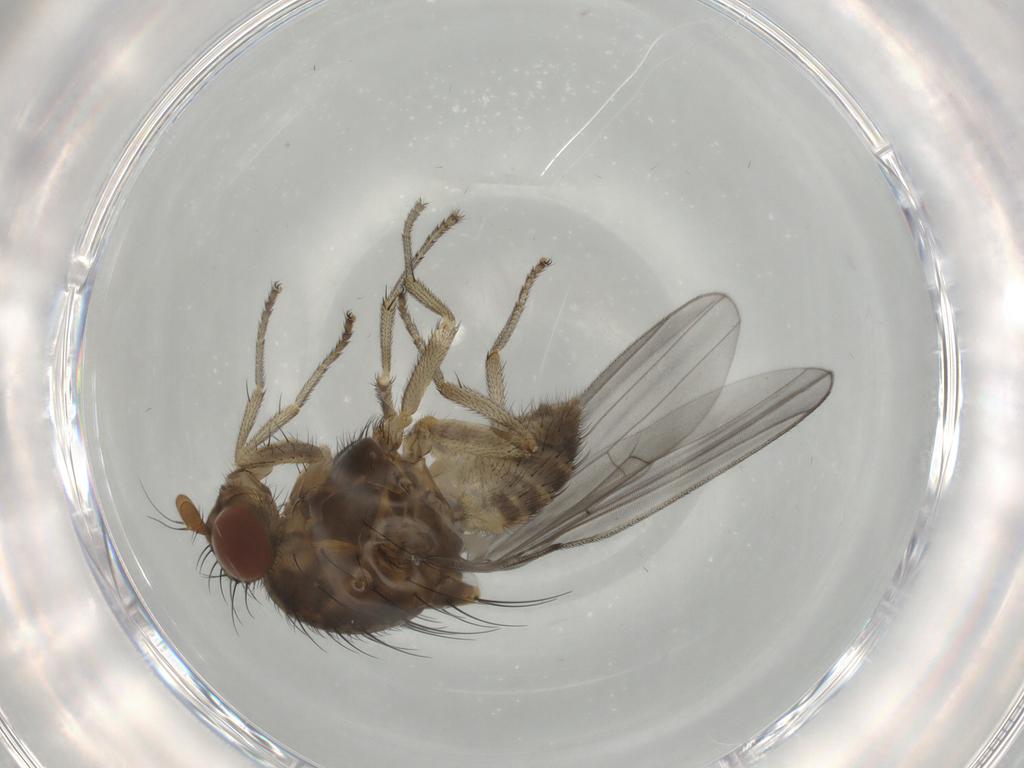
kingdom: Animalia
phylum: Arthropoda
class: Insecta
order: Diptera
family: Lauxaniidae
